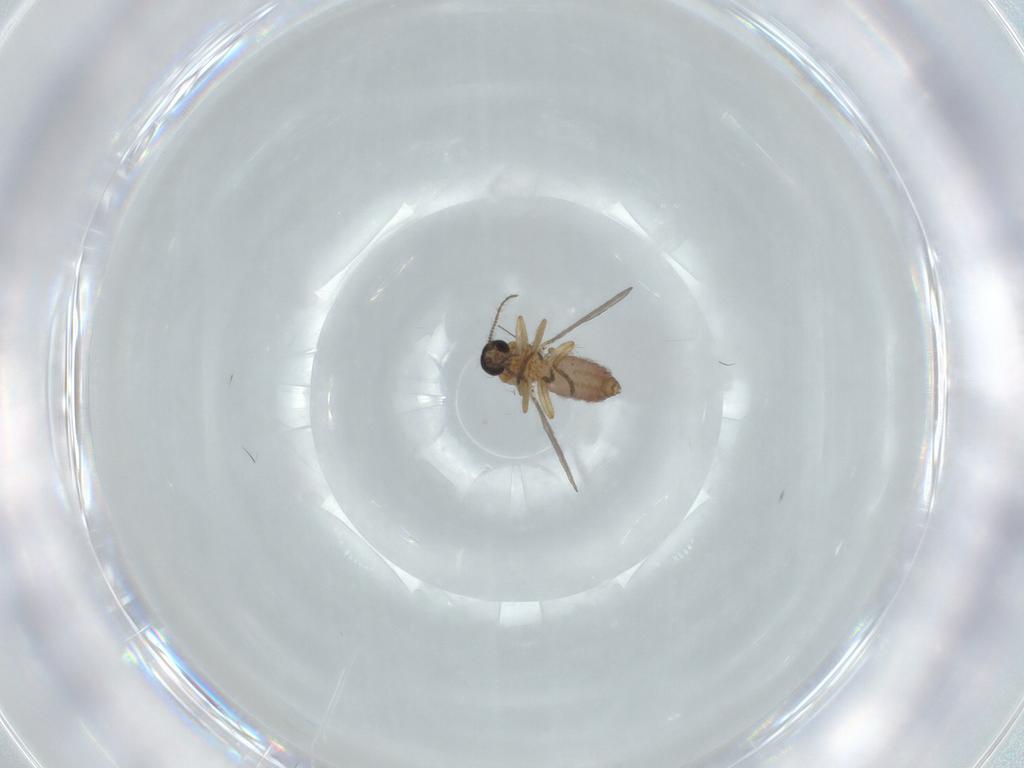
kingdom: Animalia
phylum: Arthropoda
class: Insecta
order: Diptera
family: Ceratopogonidae
